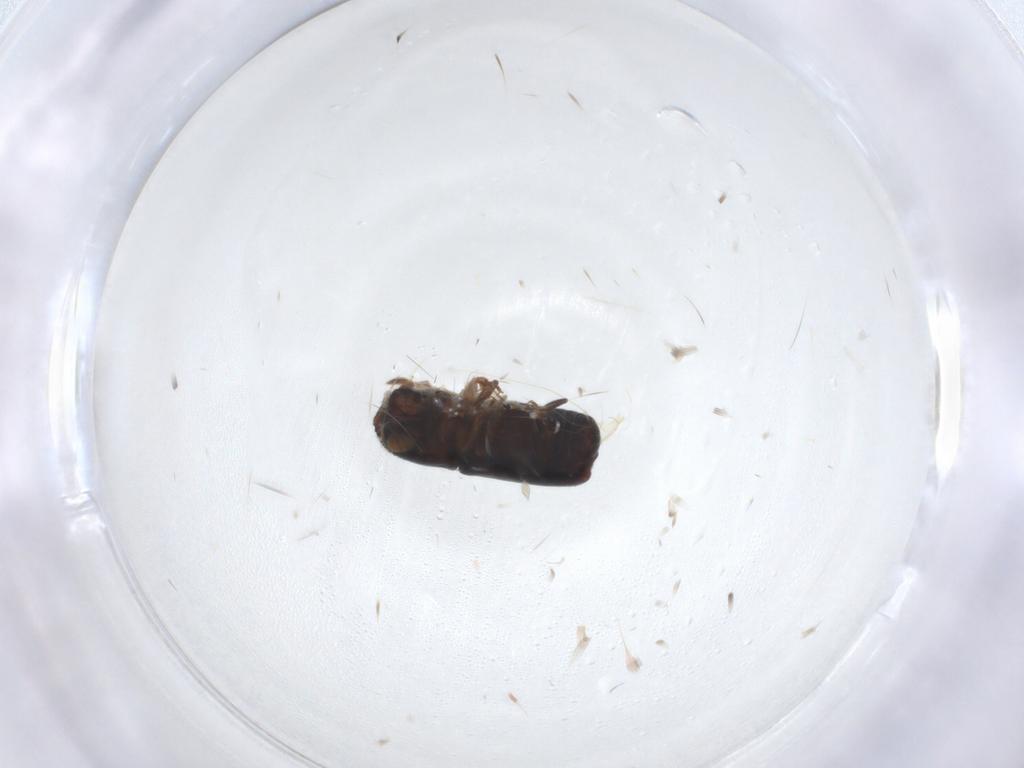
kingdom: Animalia
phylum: Arthropoda
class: Insecta
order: Coleoptera
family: Curculionidae
